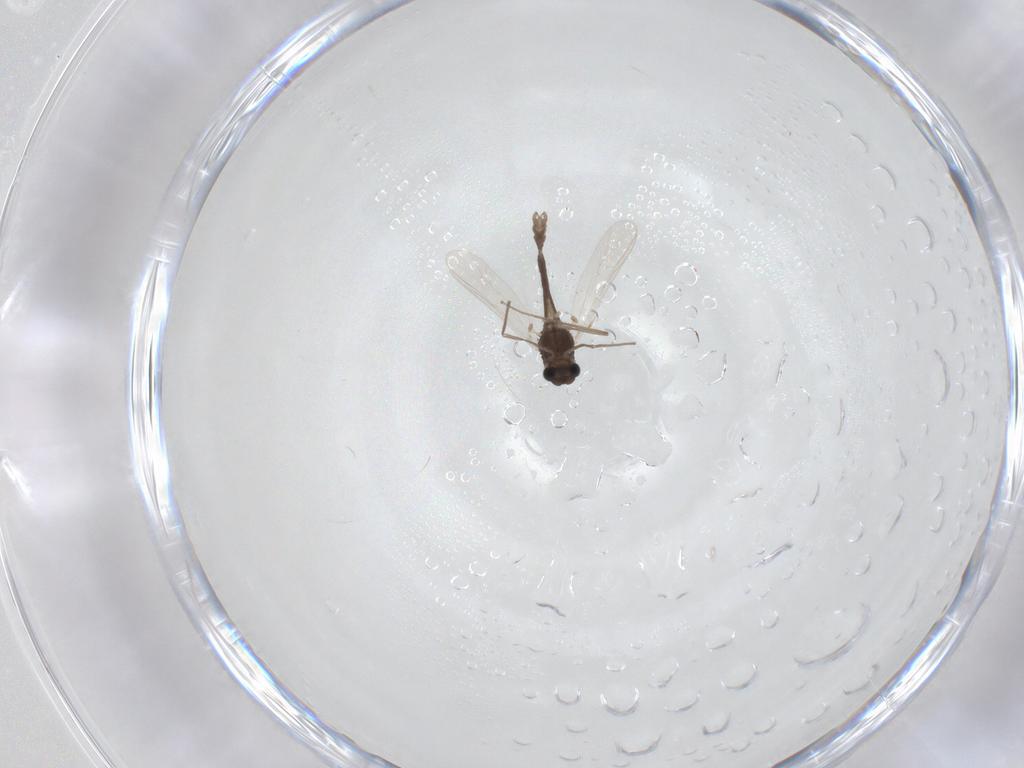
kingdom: Animalia
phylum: Arthropoda
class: Insecta
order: Diptera
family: Chironomidae
